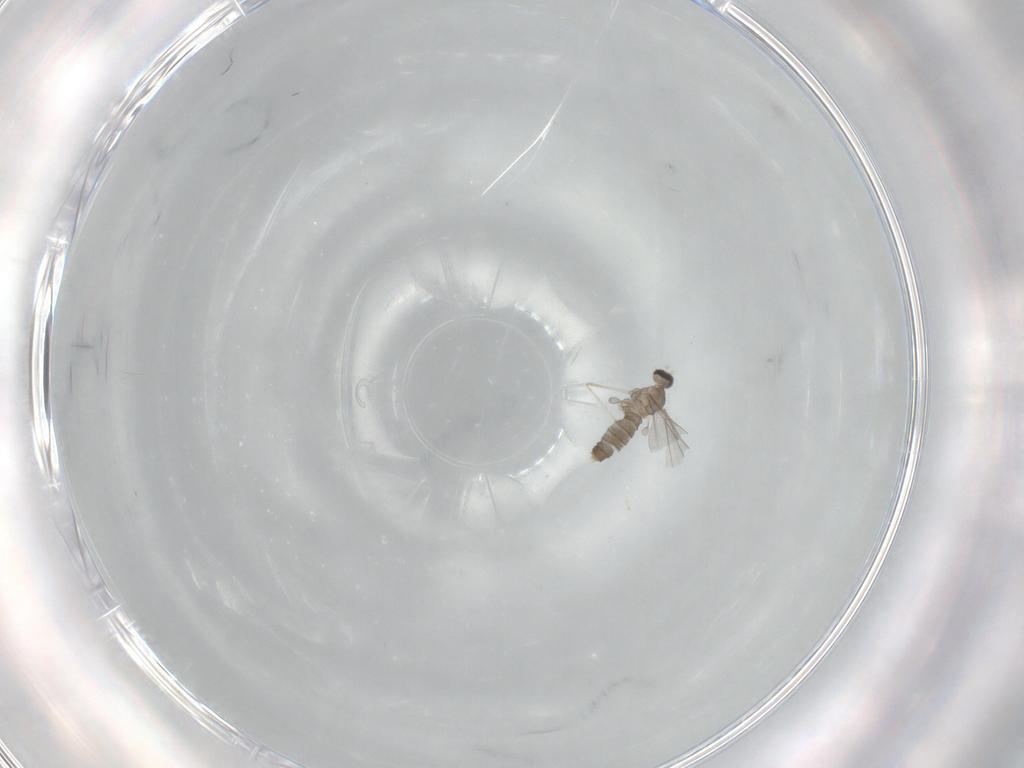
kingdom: Animalia
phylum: Arthropoda
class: Insecta
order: Diptera
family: Cecidomyiidae
